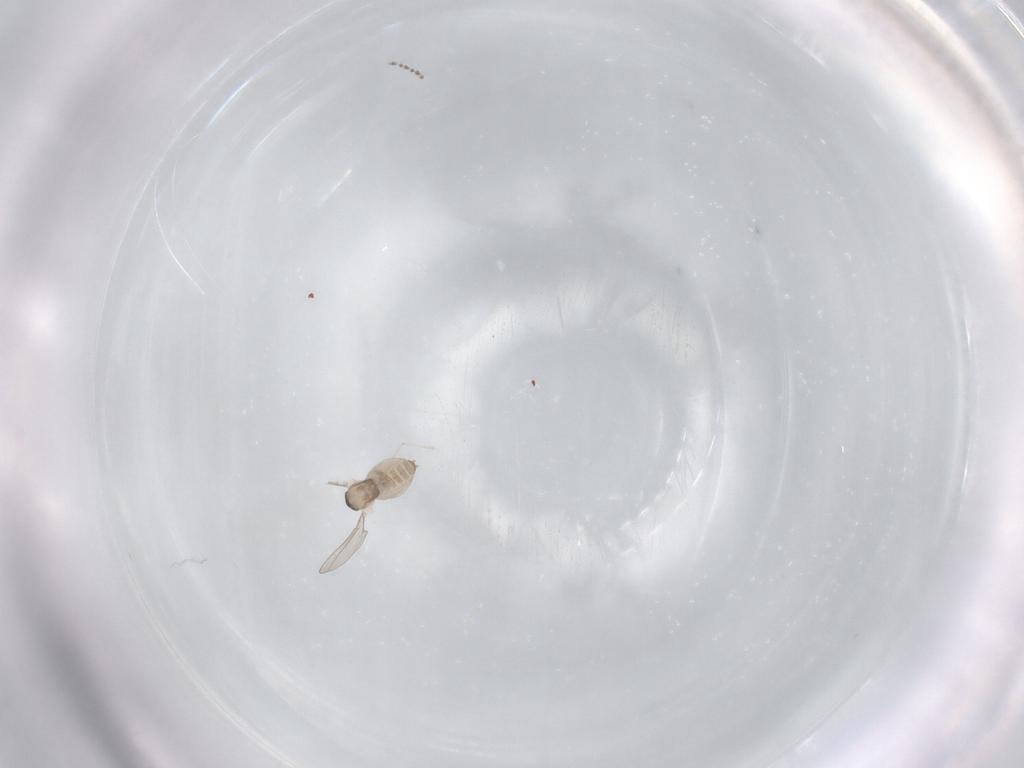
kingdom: Animalia
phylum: Arthropoda
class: Insecta
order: Diptera
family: Cecidomyiidae
